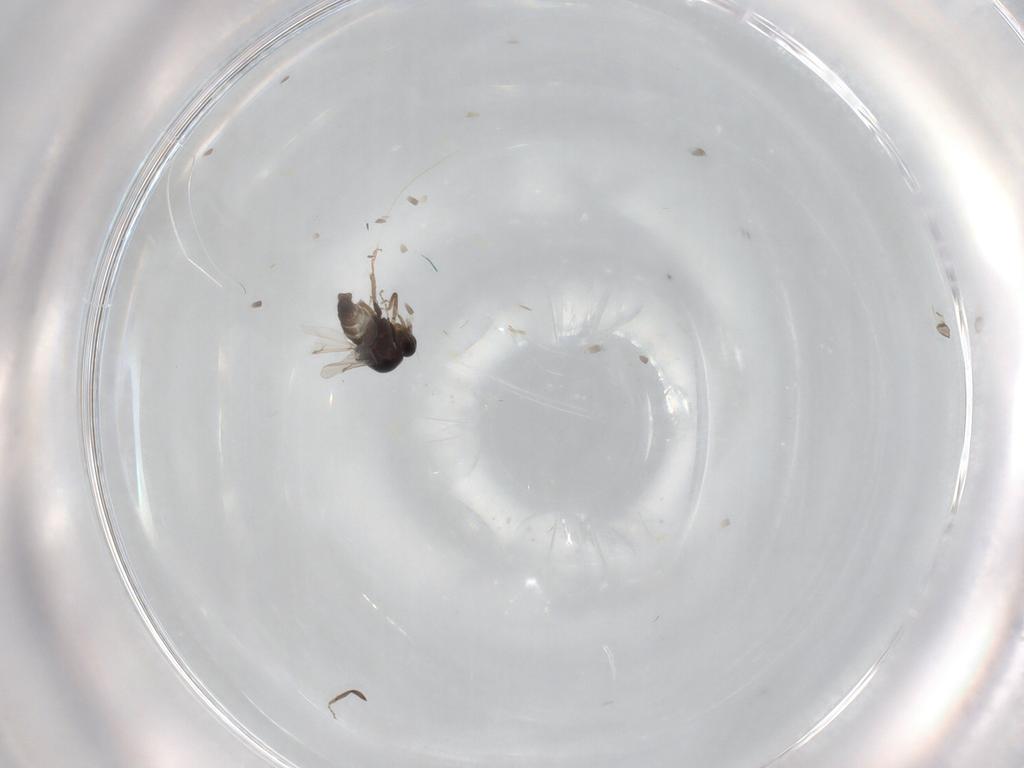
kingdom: Animalia
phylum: Arthropoda
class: Insecta
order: Diptera
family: Ceratopogonidae
